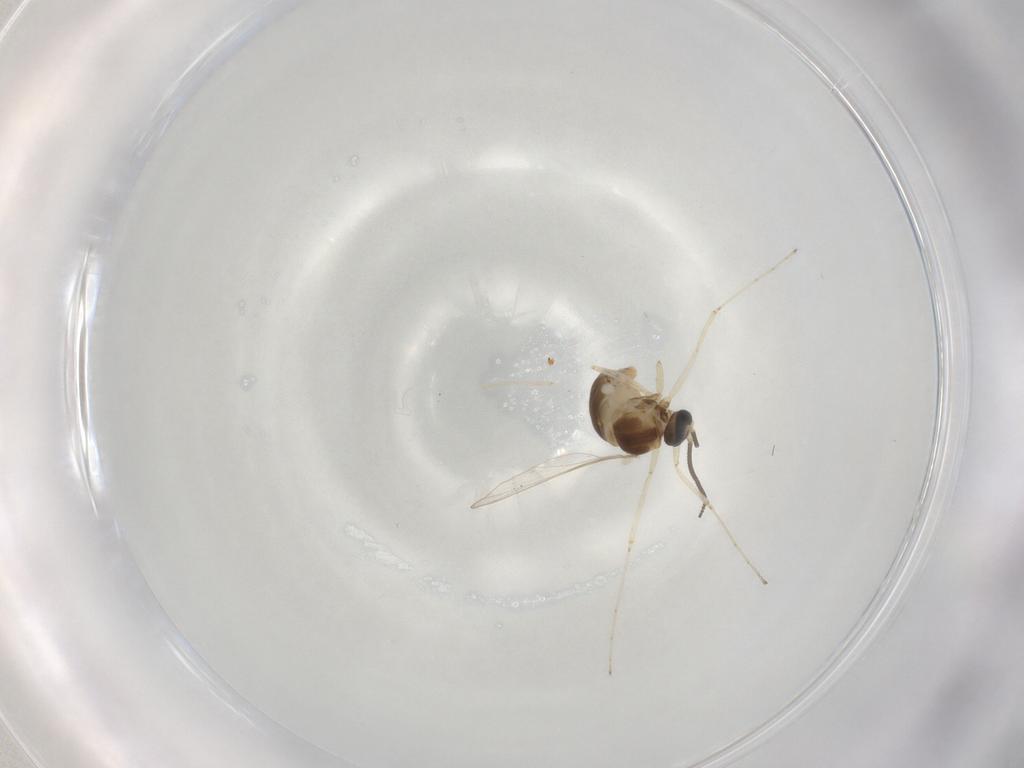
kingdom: Animalia
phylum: Arthropoda
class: Insecta
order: Diptera
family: Cecidomyiidae
